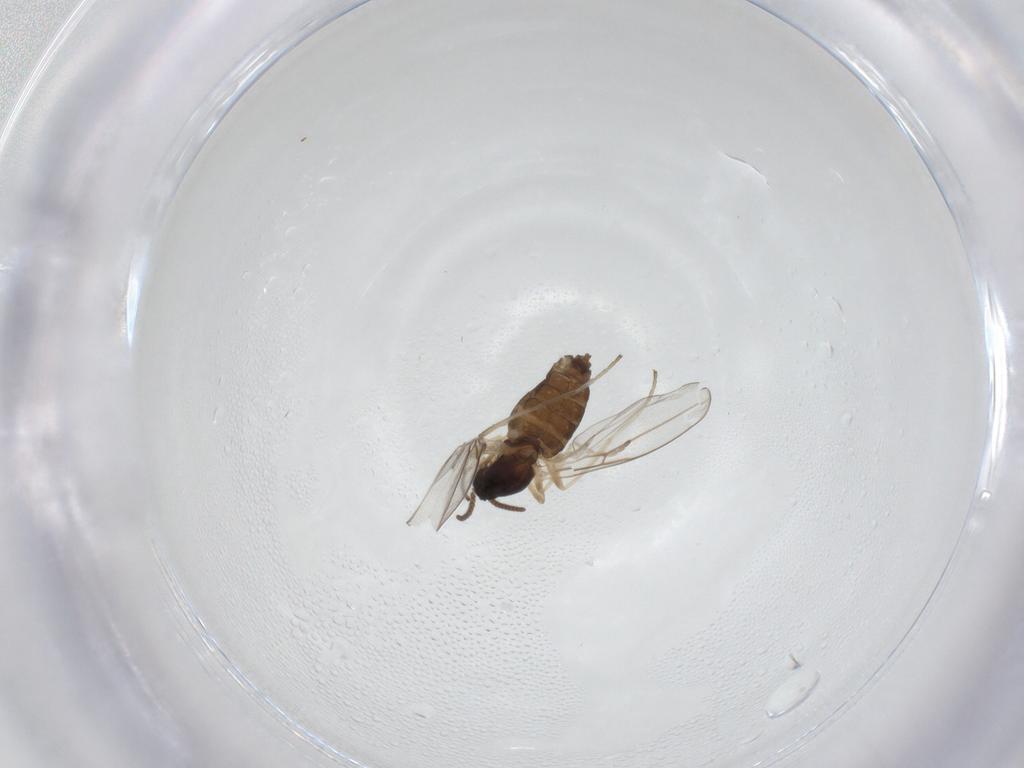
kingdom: Animalia
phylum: Arthropoda
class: Insecta
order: Diptera
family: Cecidomyiidae
